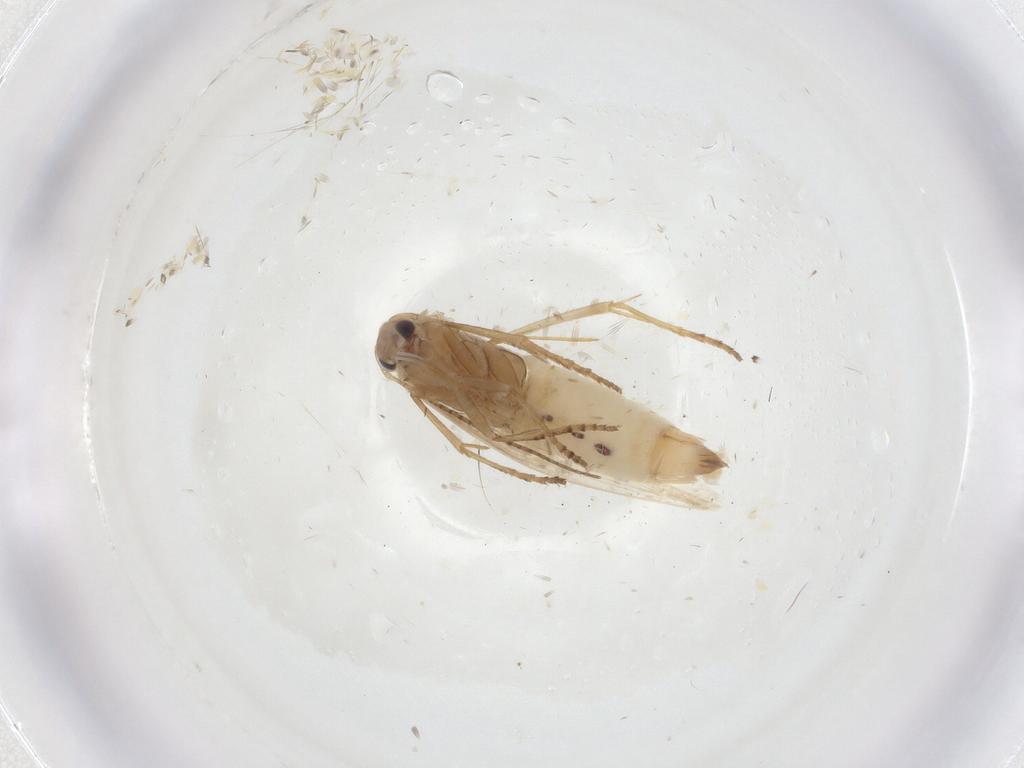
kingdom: Animalia
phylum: Arthropoda
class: Insecta
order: Lepidoptera
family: Bucculatricidae
